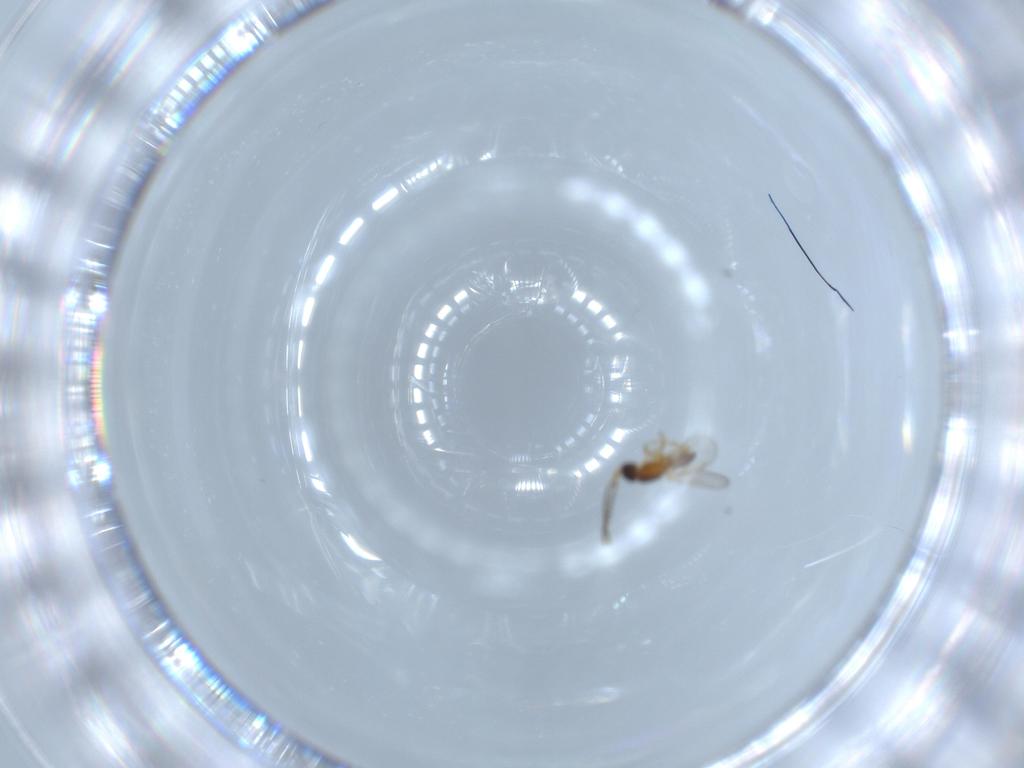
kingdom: Animalia
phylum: Arthropoda
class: Insecta
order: Hymenoptera
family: Diapriidae
